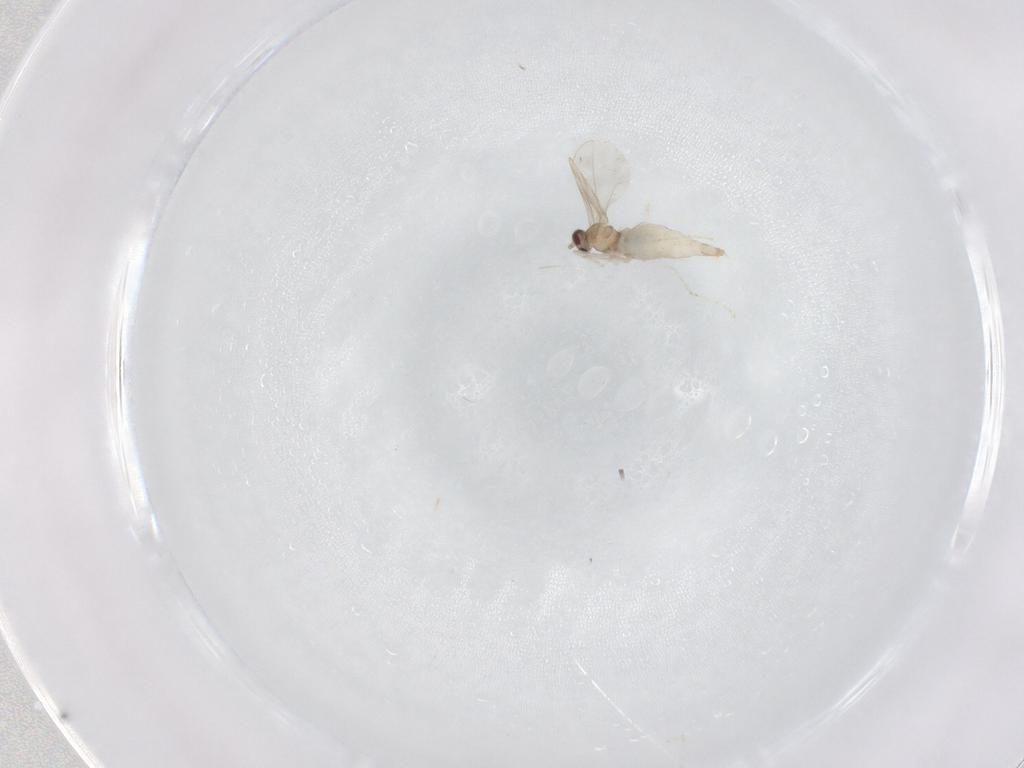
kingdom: Animalia
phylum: Arthropoda
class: Insecta
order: Diptera
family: Cecidomyiidae
